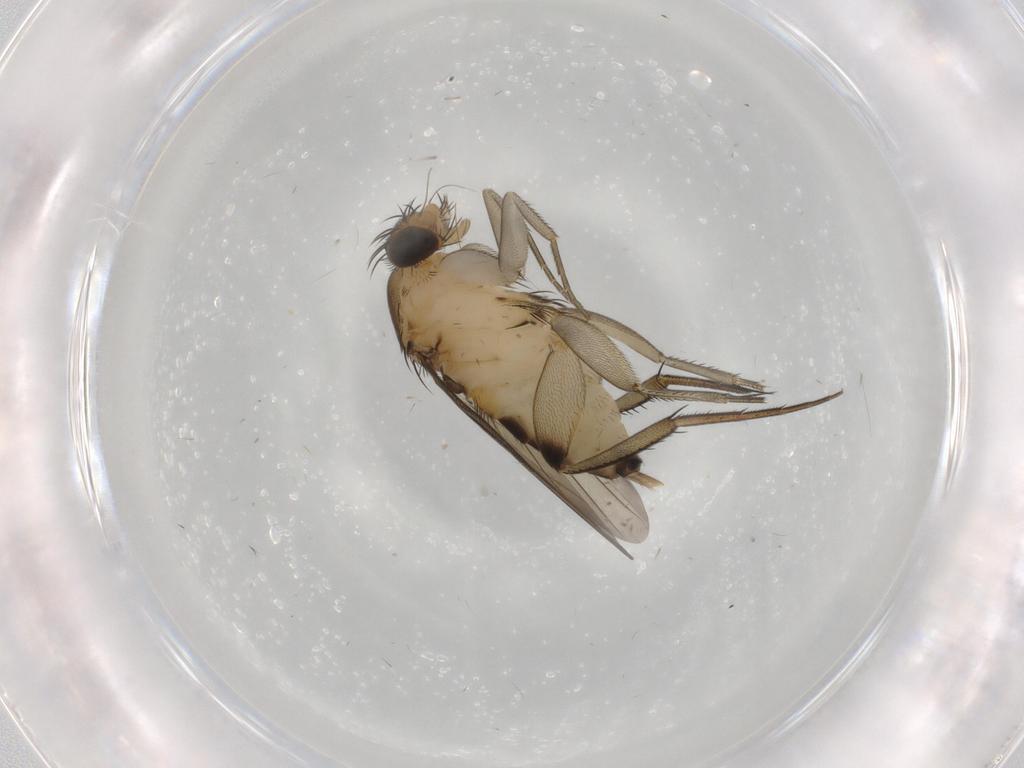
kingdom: Animalia
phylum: Arthropoda
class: Insecta
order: Diptera
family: Phoridae
